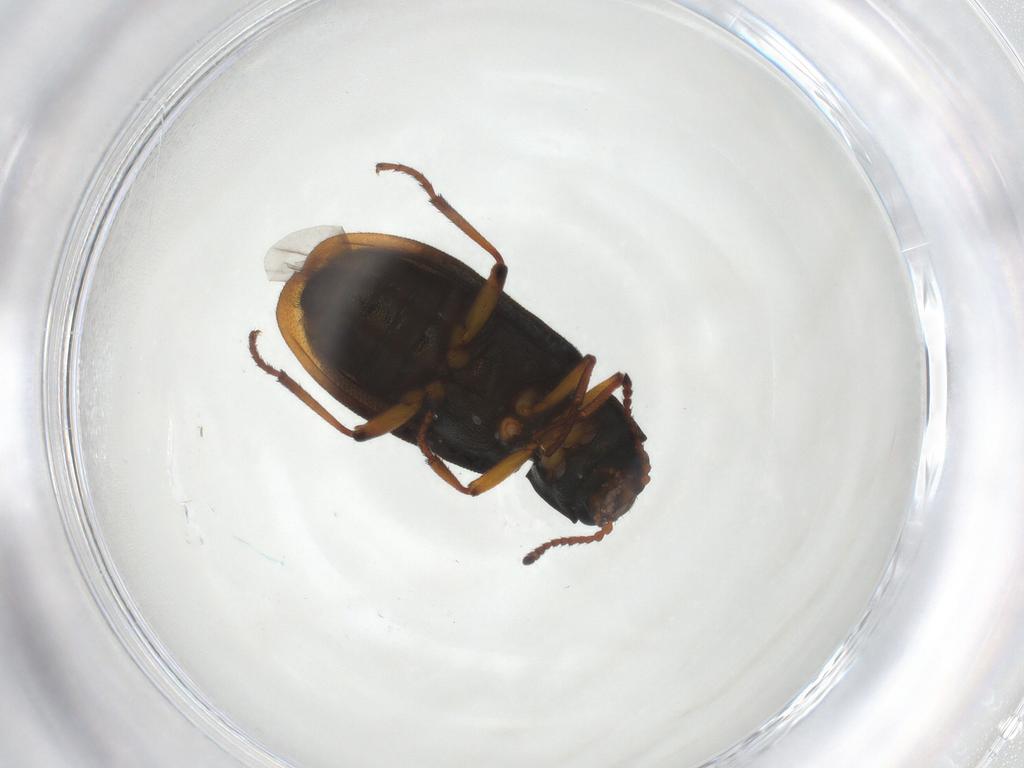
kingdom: Animalia
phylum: Arthropoda
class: Insecta
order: Coleoptera
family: Melyridae
